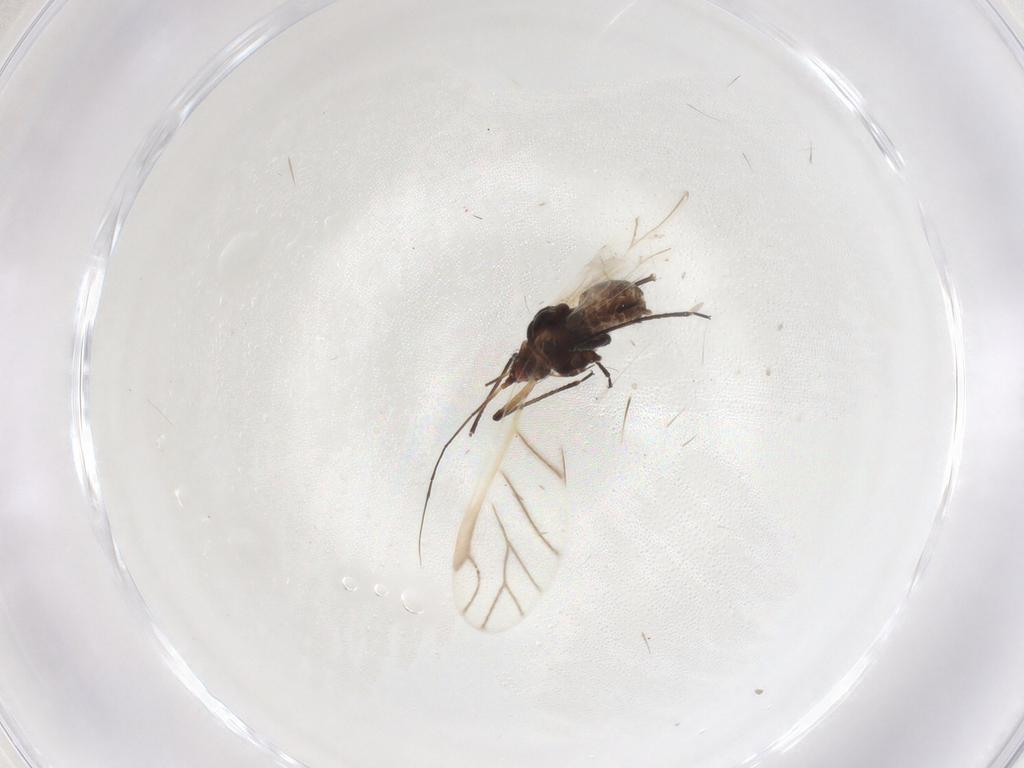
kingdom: Animalia
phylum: Arthropoda
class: Insecta
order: Hemiptera
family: Aphididae
